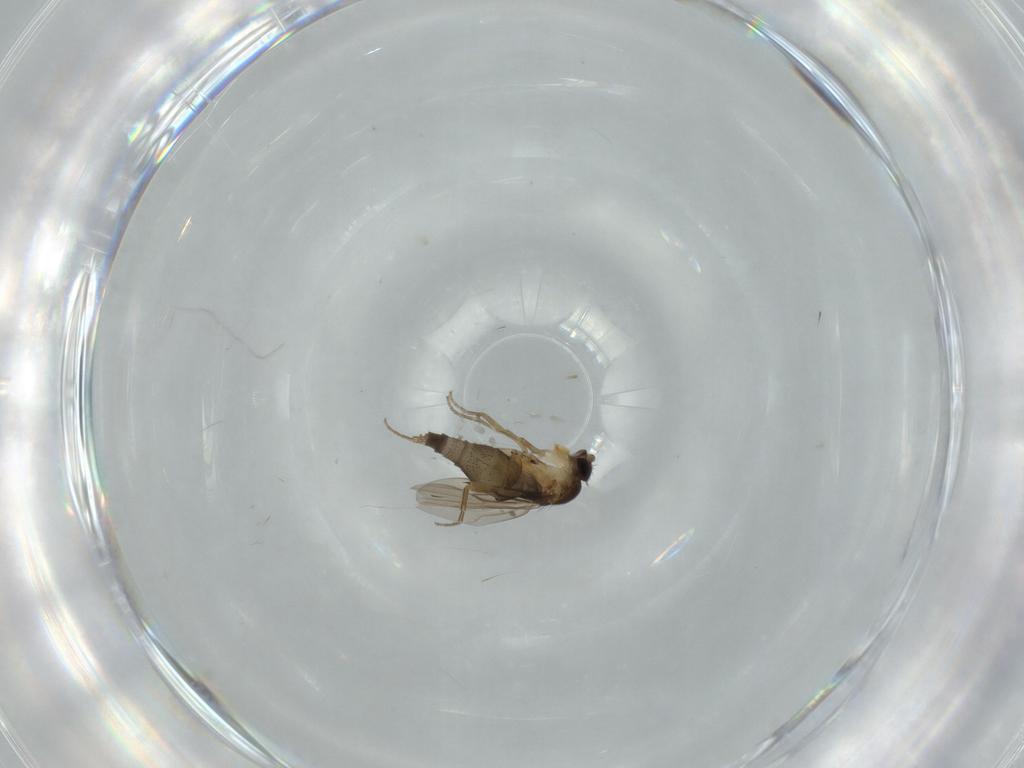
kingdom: Animalia
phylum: Arthropoda
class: Insecta
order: Diptera
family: Phoridae
